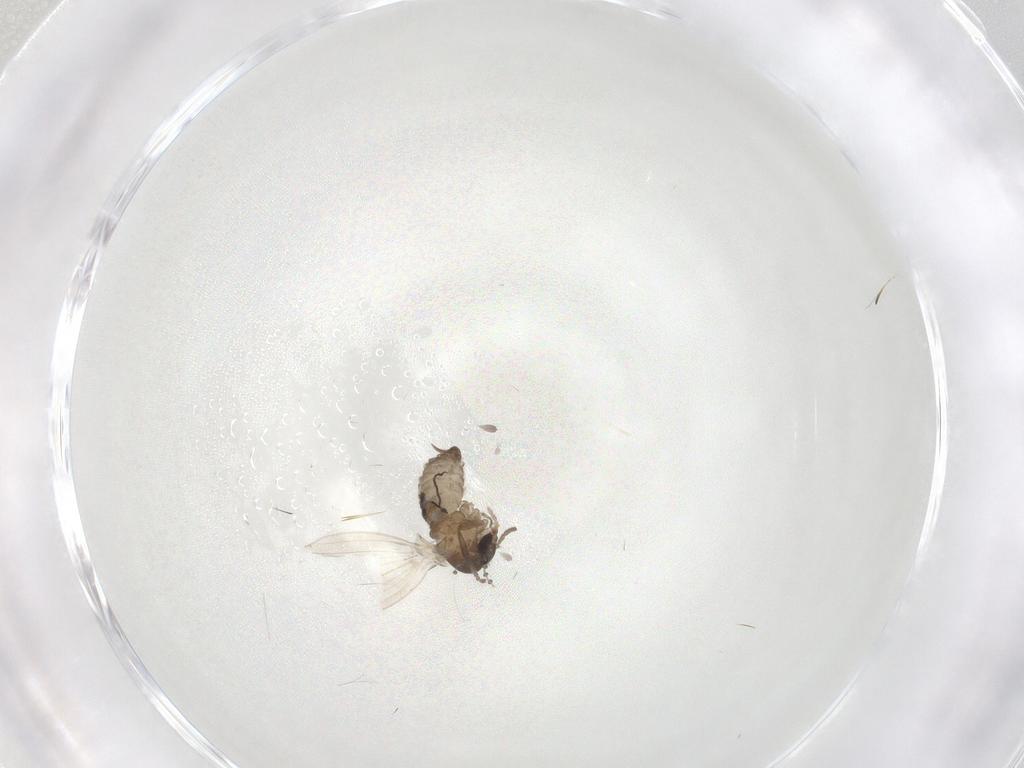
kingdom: Animalia
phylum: Arthropoda
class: Insecta
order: Diptera
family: Psychodidae
